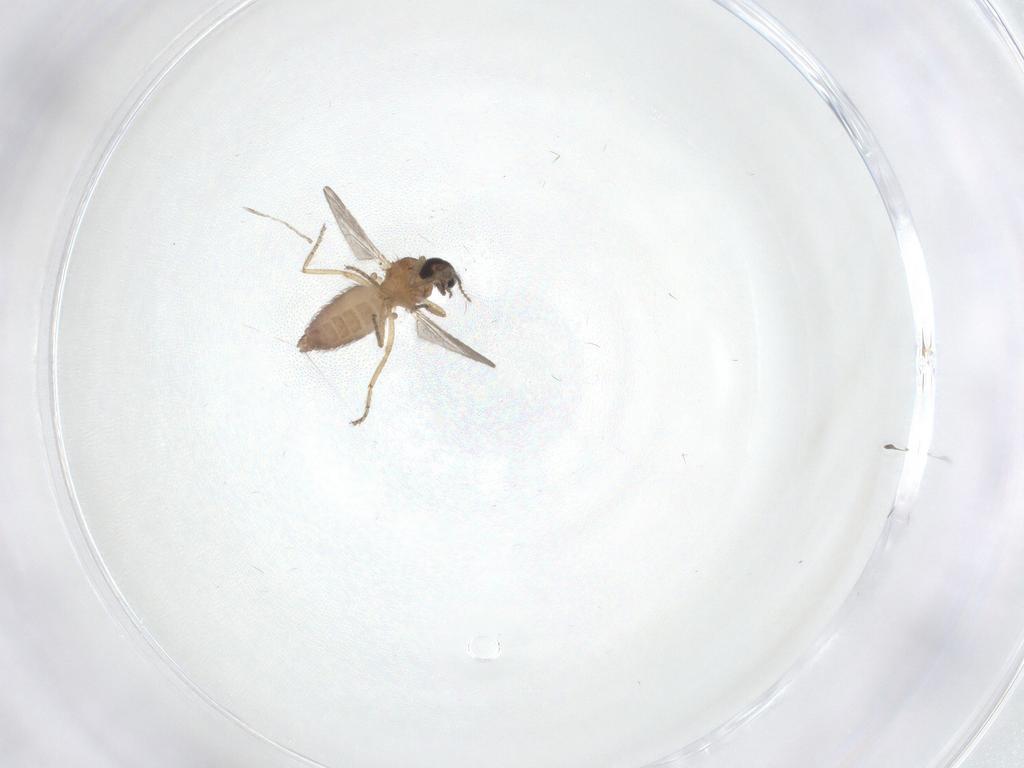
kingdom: Animalia
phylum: Arthropoda
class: Insecta
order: Diptera
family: Ceratopogonidae
